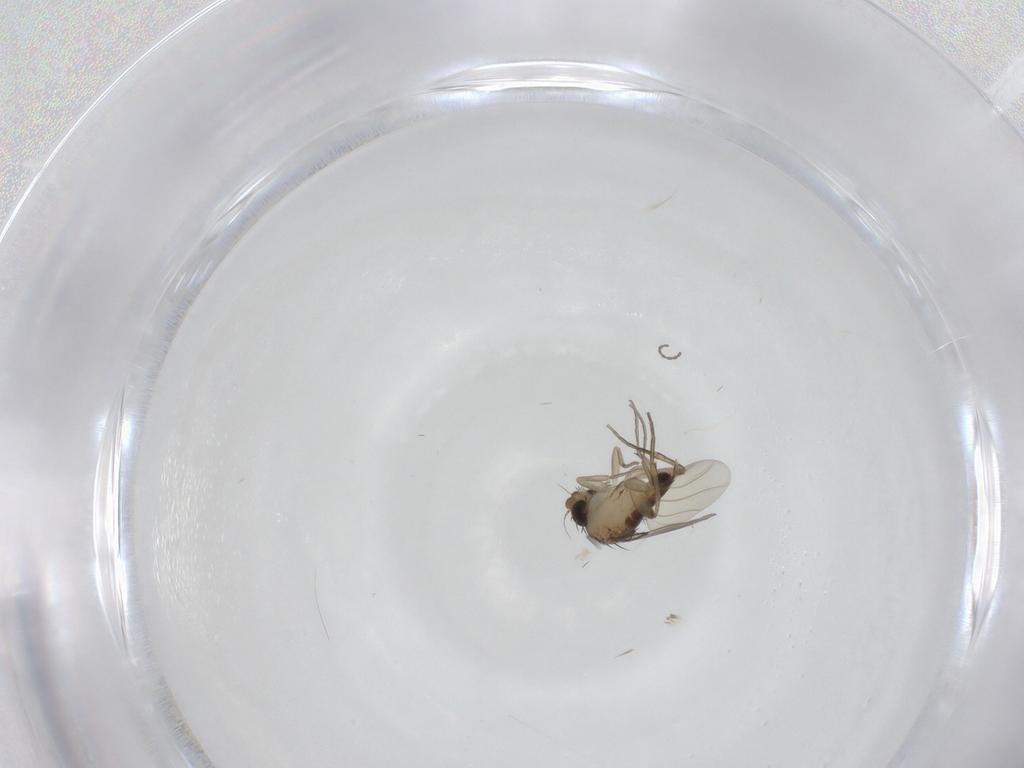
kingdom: Animalia
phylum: Arthropoda
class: Insecta
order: Diptera
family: Phoridae
